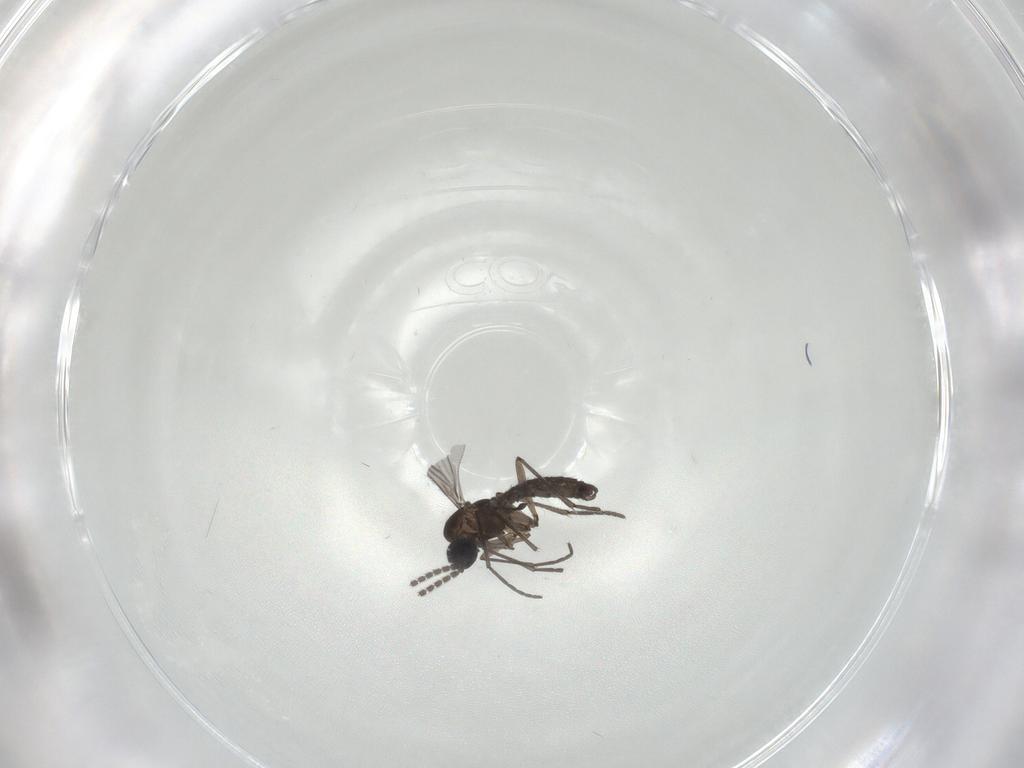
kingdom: Animalia
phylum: Arthropoda
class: Insecta
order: Diptera
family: Sciaridae
